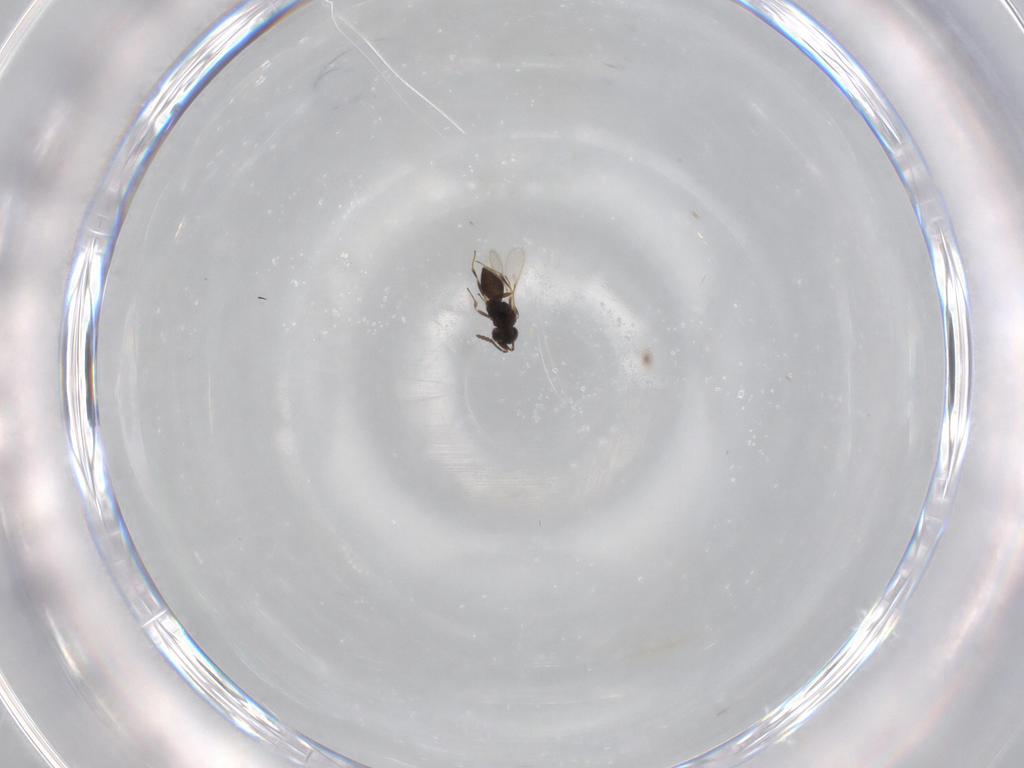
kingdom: Animalia
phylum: Arthropoda
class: Insecta
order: Hymenoptera
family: Scelionidae
